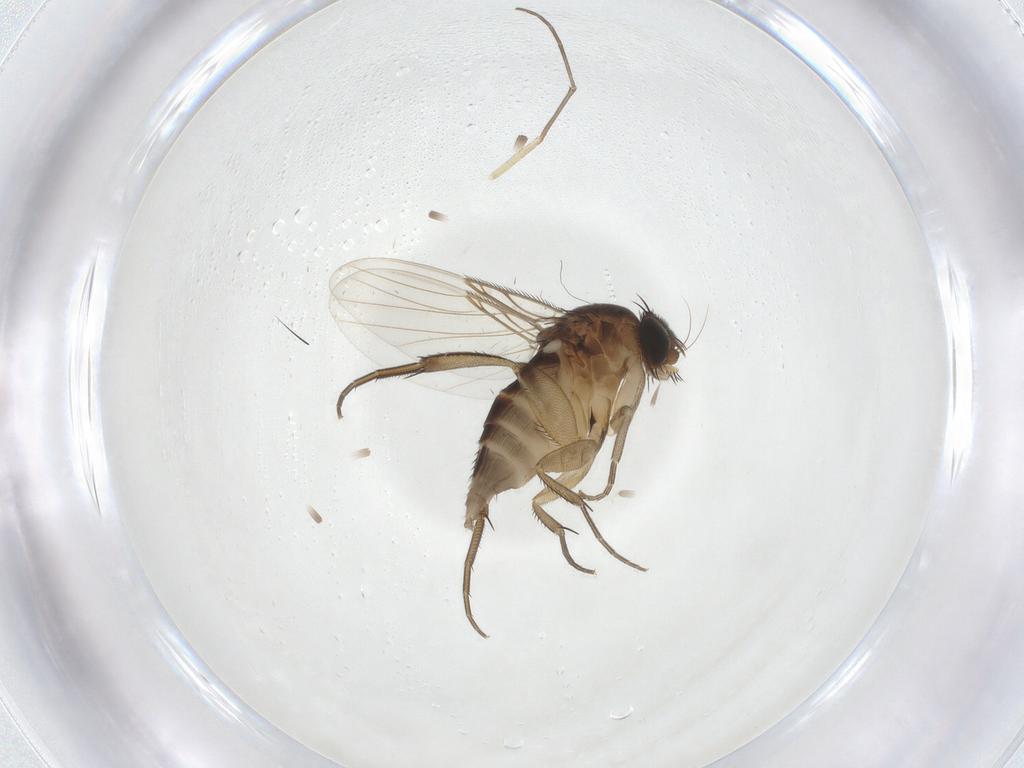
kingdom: Animalia
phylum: Arthropoda
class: Insecta
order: Diptera
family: Phoridae
